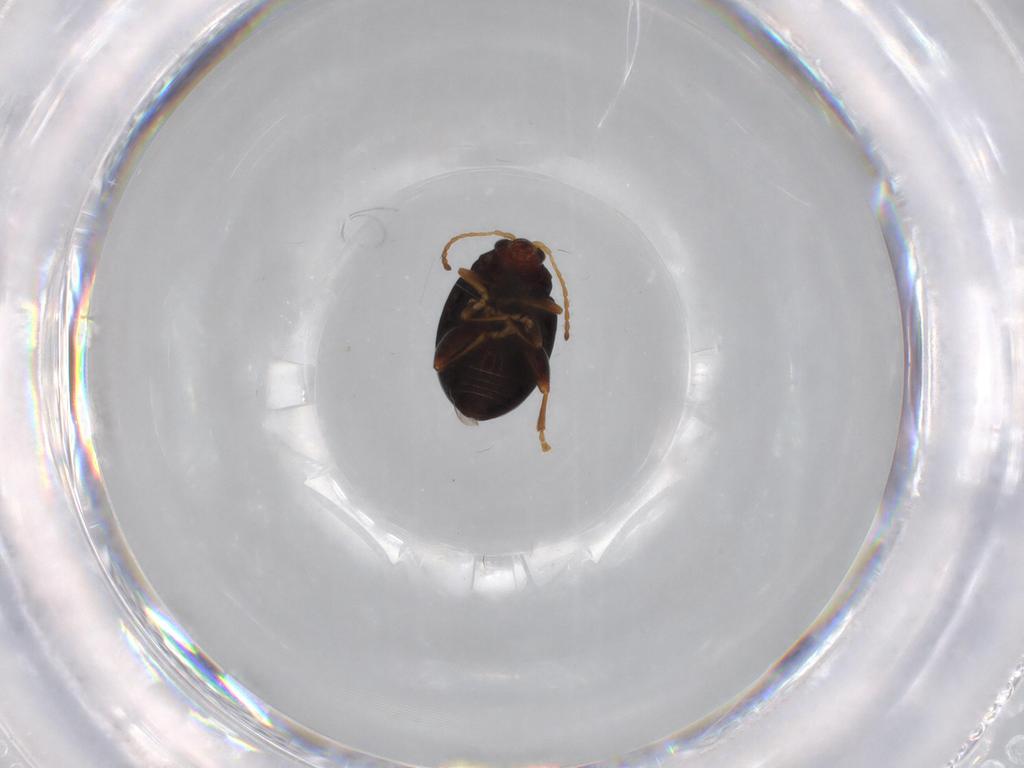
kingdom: Animalia
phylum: Arthropoda
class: Insecta
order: Coleoptera
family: Chrysomelidae
